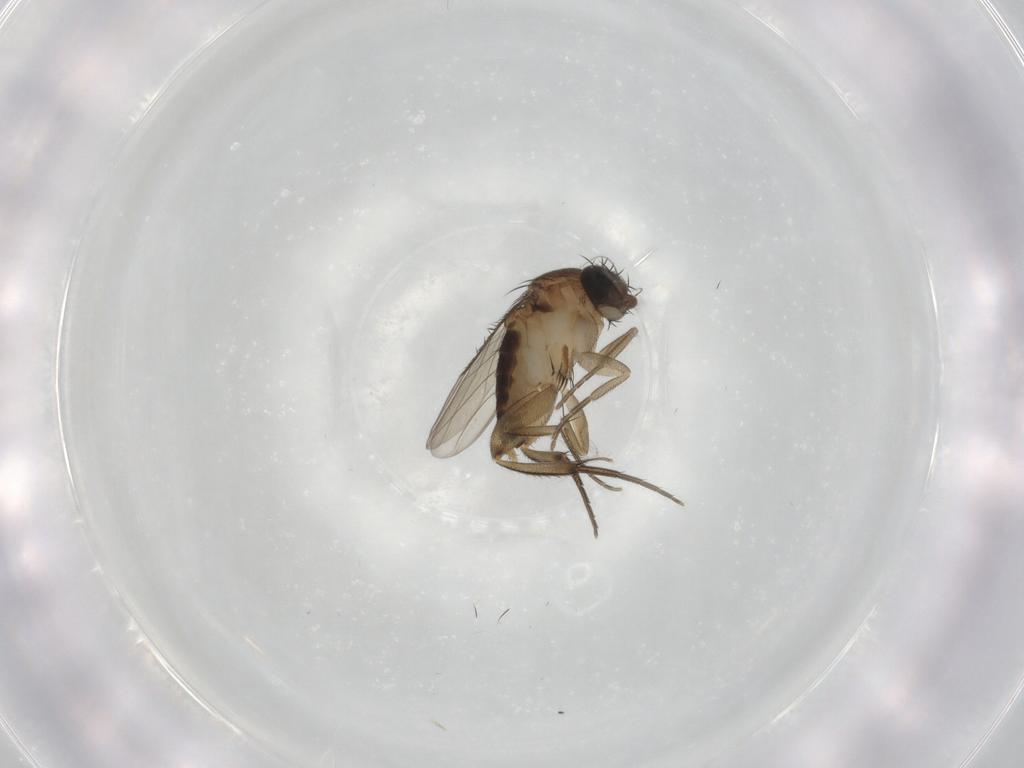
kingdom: Animalia
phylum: Arthropoda
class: Insecta
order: Diptera
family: Phoridae
